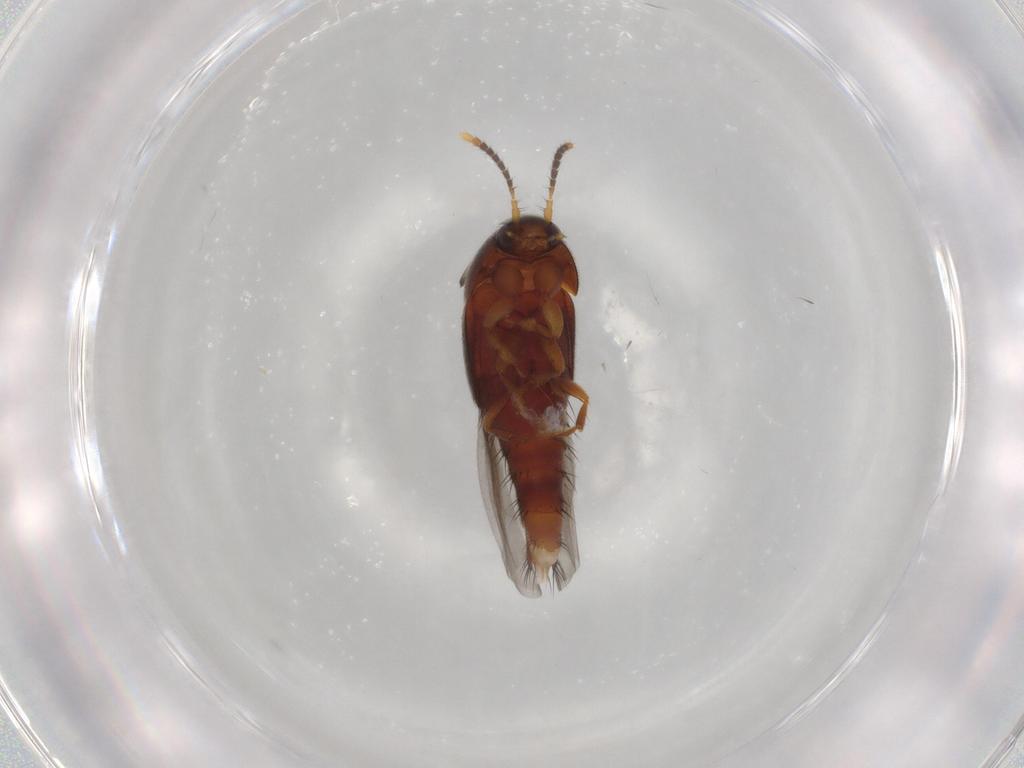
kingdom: Animalia
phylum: Arthropoda
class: Insecta
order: Coleoptera
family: Staphylinidae
